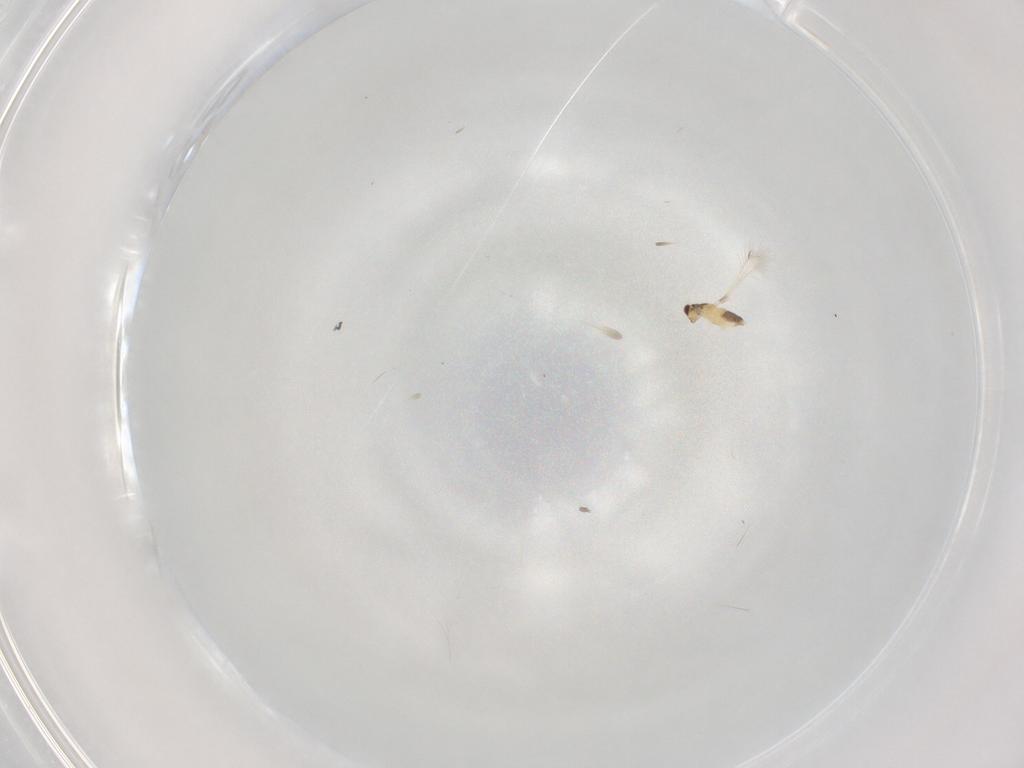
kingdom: Animalia
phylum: Arthropoda
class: Insecta
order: Hymenoptera
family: Mymaridae
